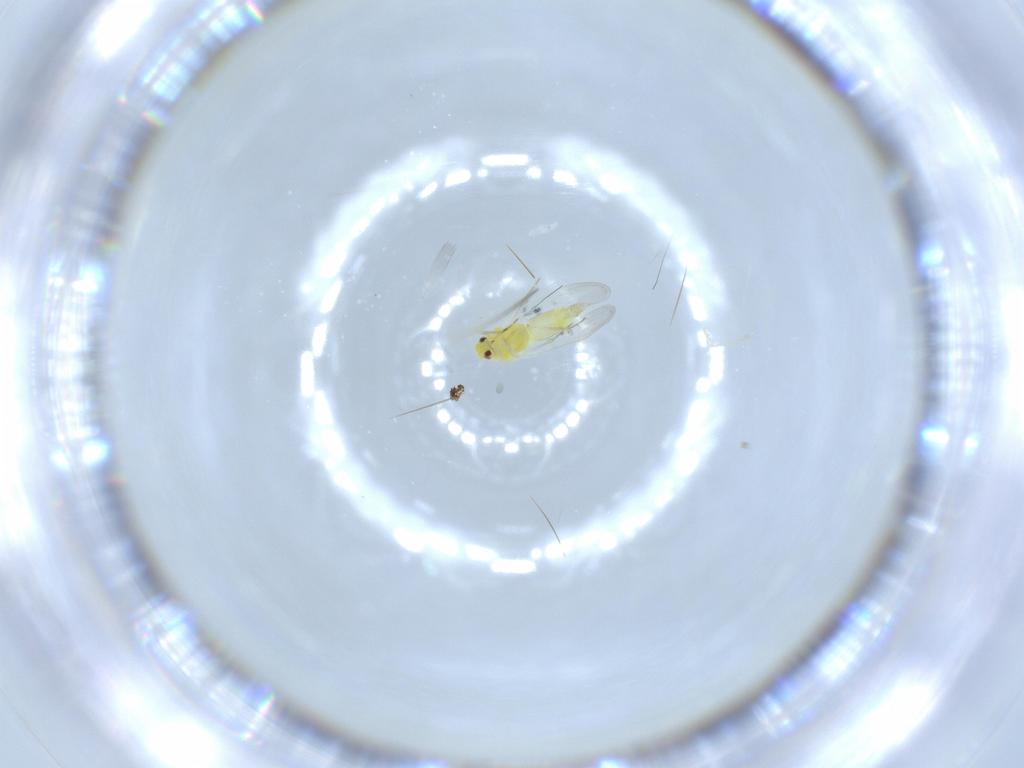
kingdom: Animalia
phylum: Arthropoda
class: Insecta
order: Hemiptera
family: Aleyrodidae
